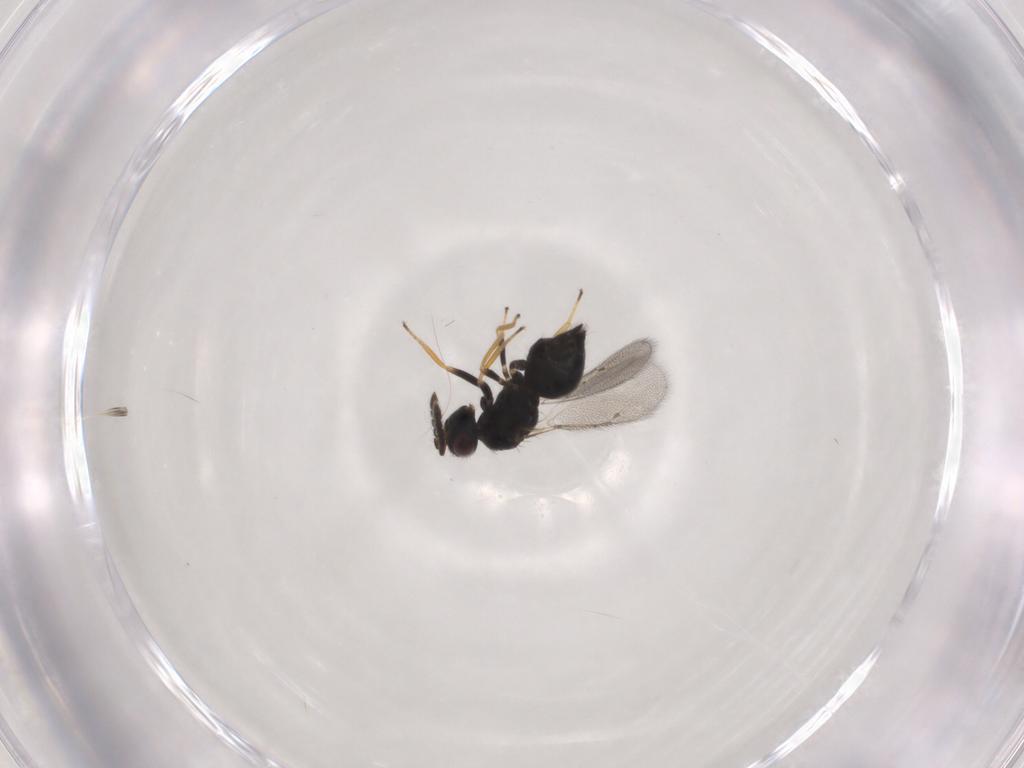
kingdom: Animalia
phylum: Arthropoda
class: Insecta
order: Hymenoptera
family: Eulophidae
